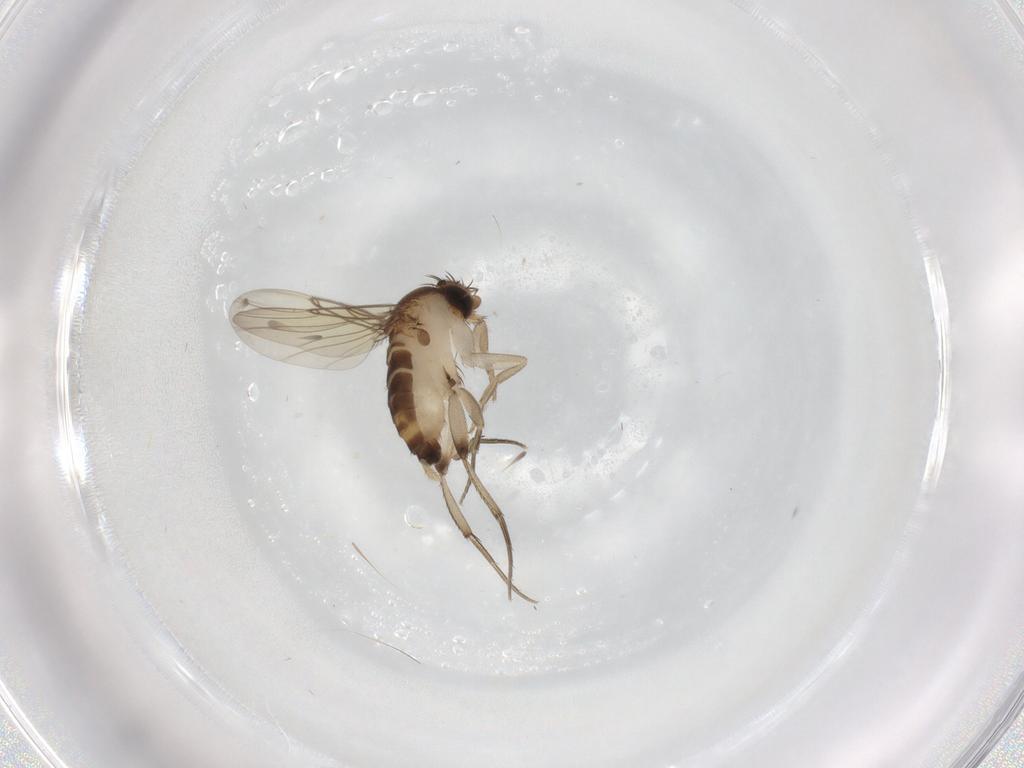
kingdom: Animalia
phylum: Arthropoda
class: Insecta
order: Diptera
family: Phoridae
